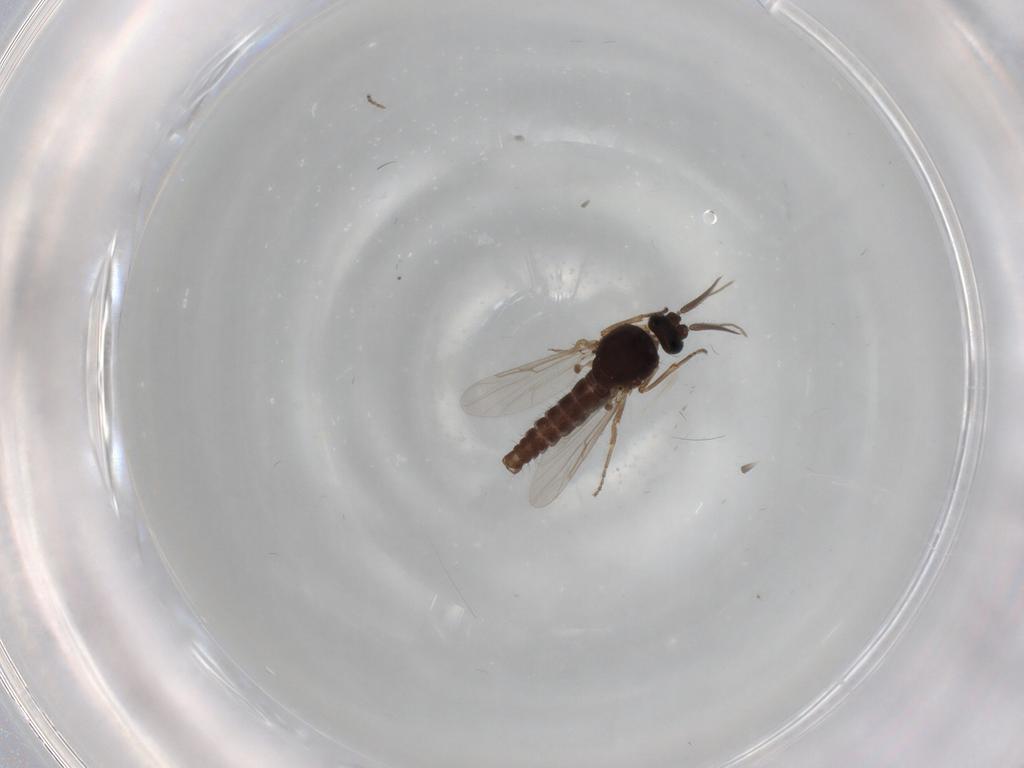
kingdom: Animalia
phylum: Arthropoda
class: Insecta
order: Diptera
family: Ceratopogonidae
